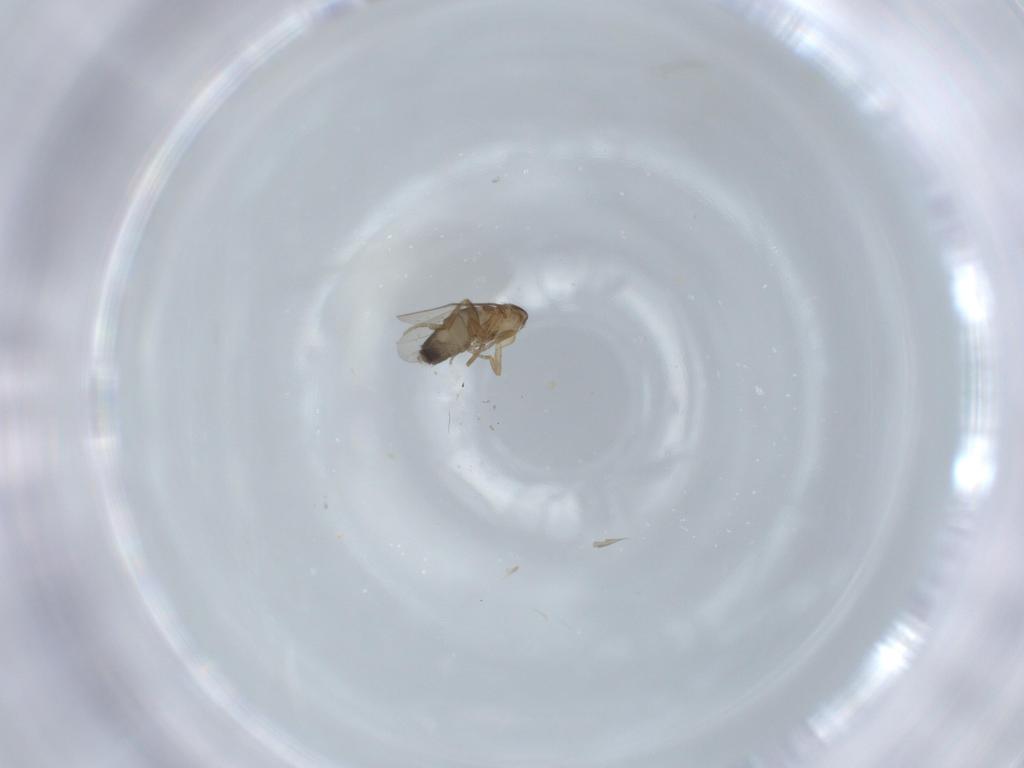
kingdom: Animalia
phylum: Arthropoda
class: Insecta
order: Diptera
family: Phoridae
